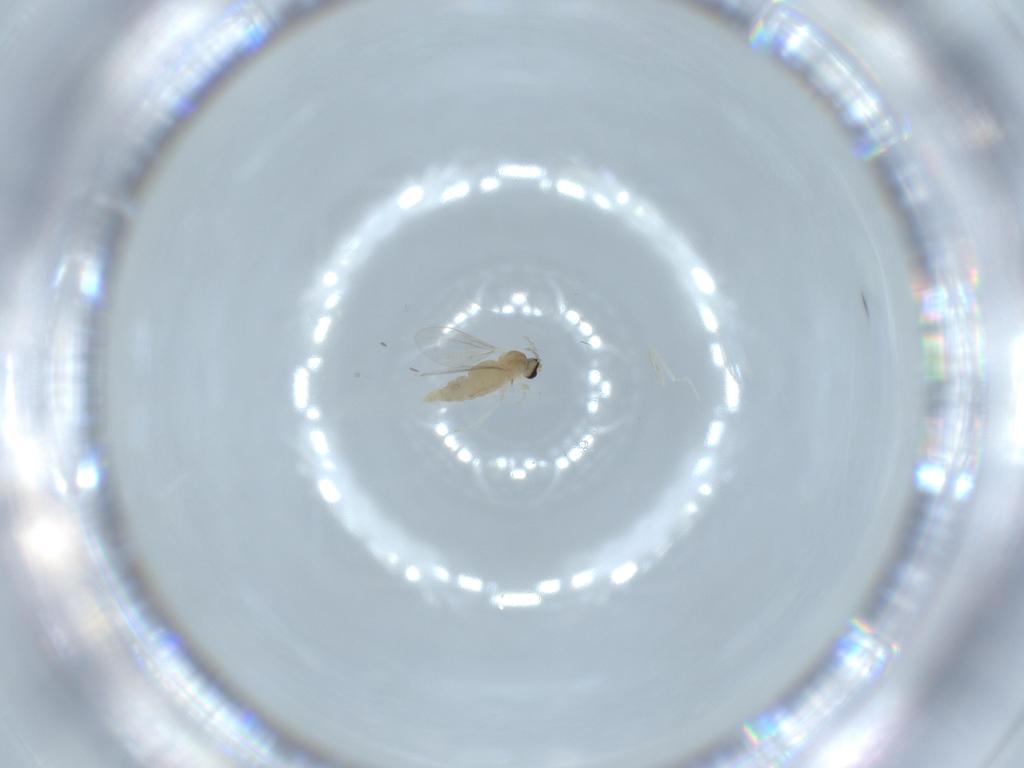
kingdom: Animalia
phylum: Arthropoda
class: Insecta
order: Diptera
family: Cecidomyiidae
